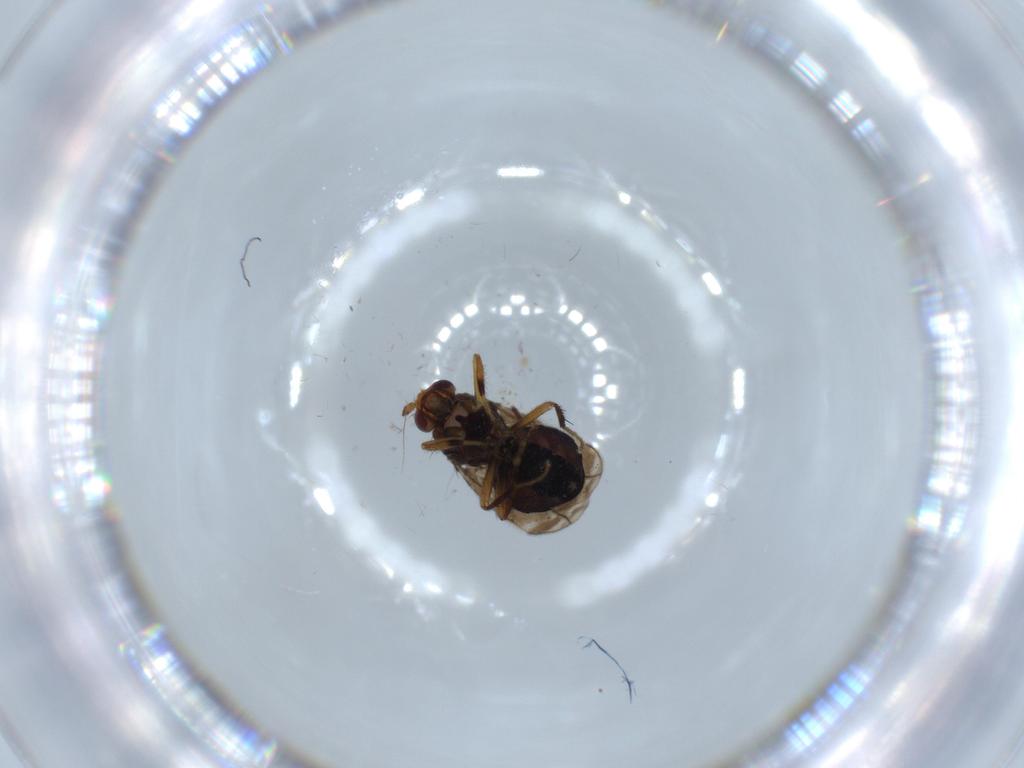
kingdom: Animalia
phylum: Arthropoda
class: Insecta
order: Diptera
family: Sphaeroceridae
